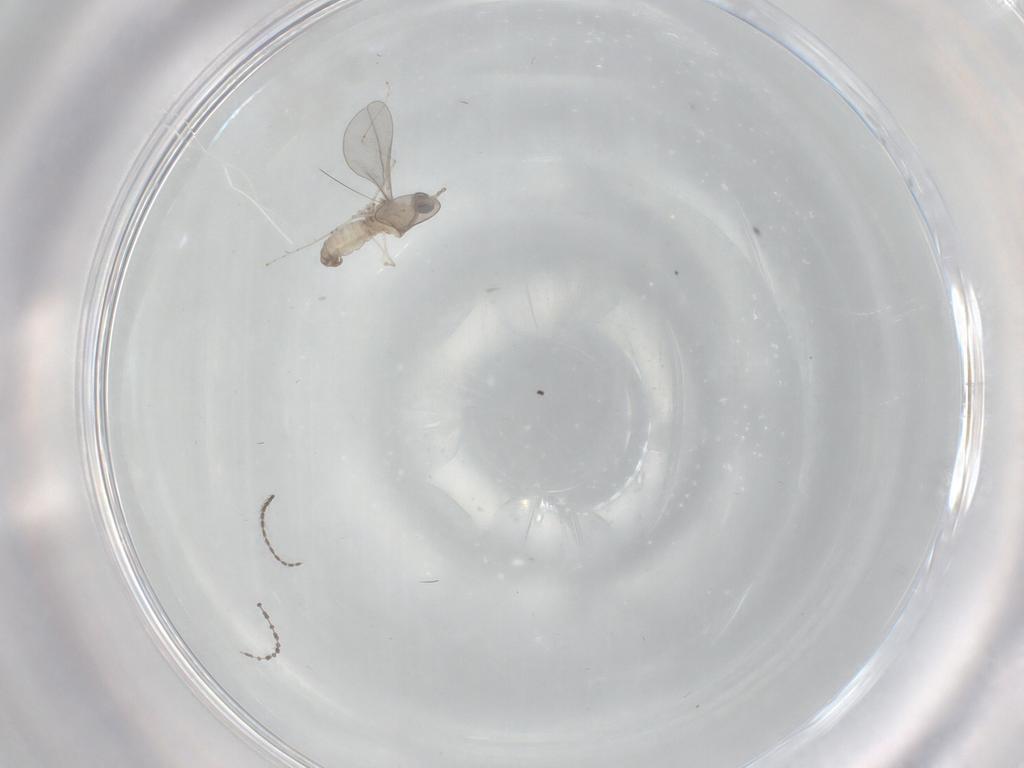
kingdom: Animalia
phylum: Arthropoda
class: Insecta
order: Diptera
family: Cecidomyiidae
